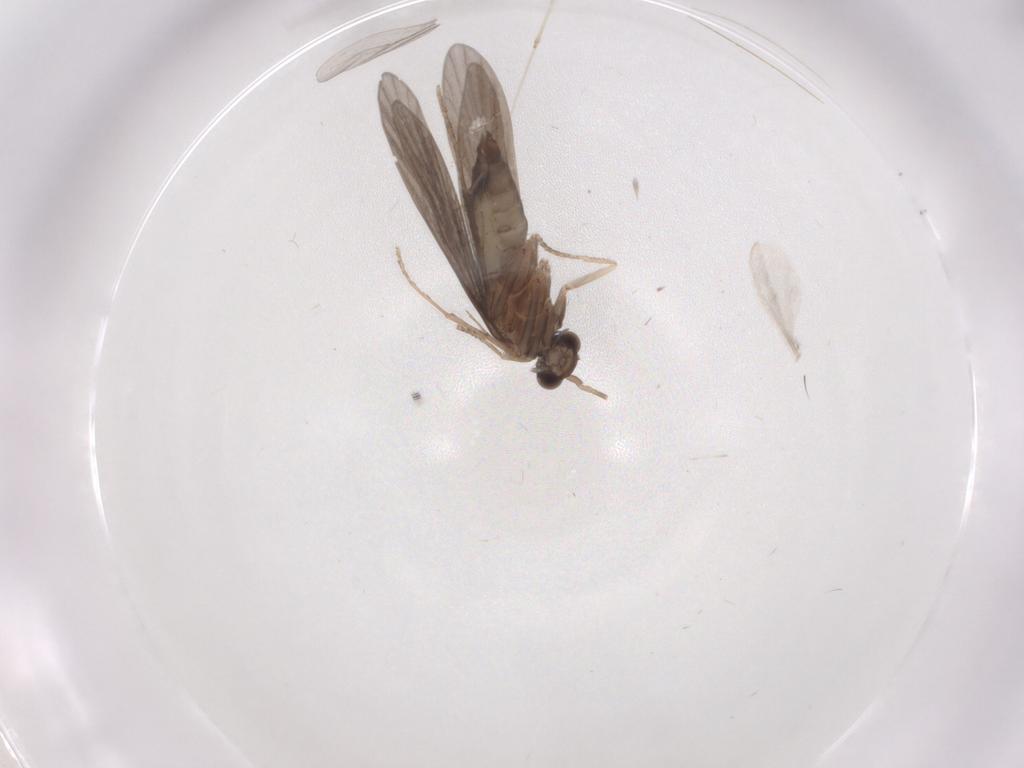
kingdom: Animalia
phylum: Arthropoda
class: Insecta
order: Trichoptera
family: Xiphocentronidae
